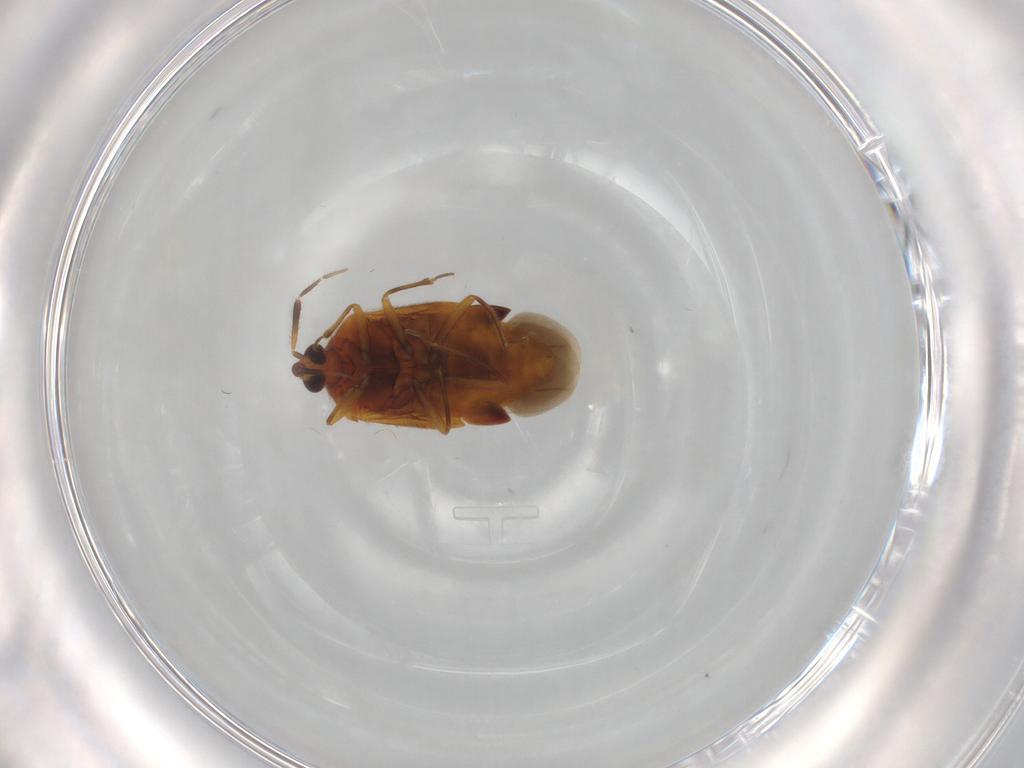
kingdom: Animalia
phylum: Arthropoda
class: Insecta
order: Hemiptera
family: Anthocoridae
